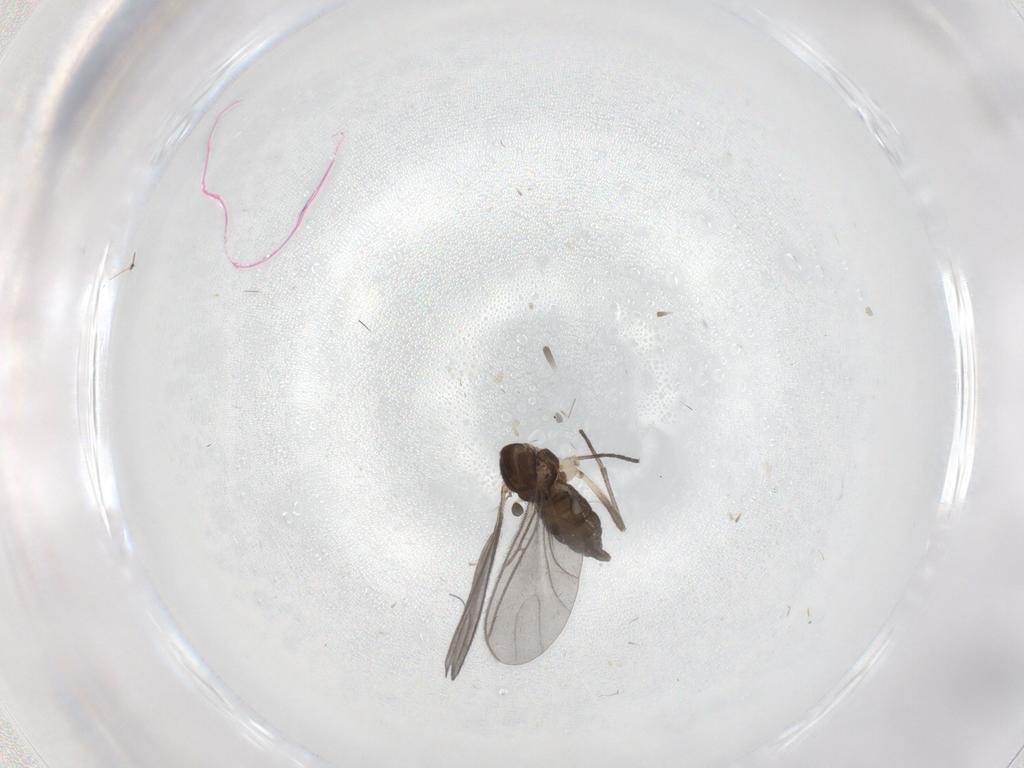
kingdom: Animalia
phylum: Arthropoda
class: Insecta
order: Diptera
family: Sciaridae
